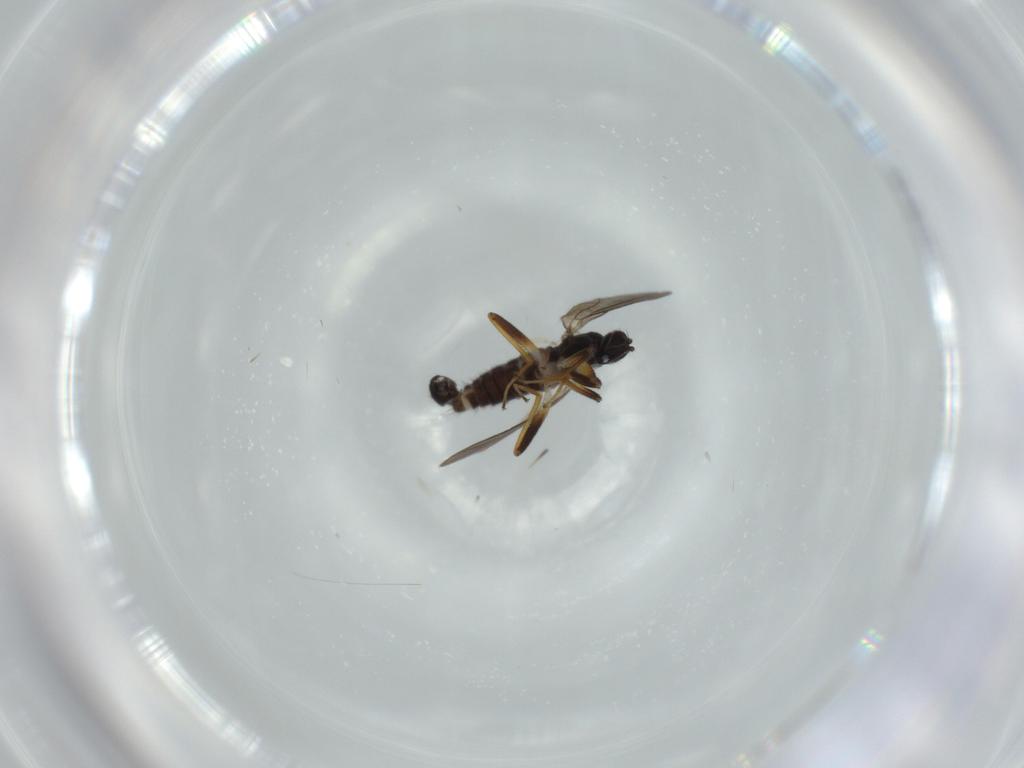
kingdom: Animalia
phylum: Arthropoda
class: Insecta
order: Diptera
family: Hybotidae
